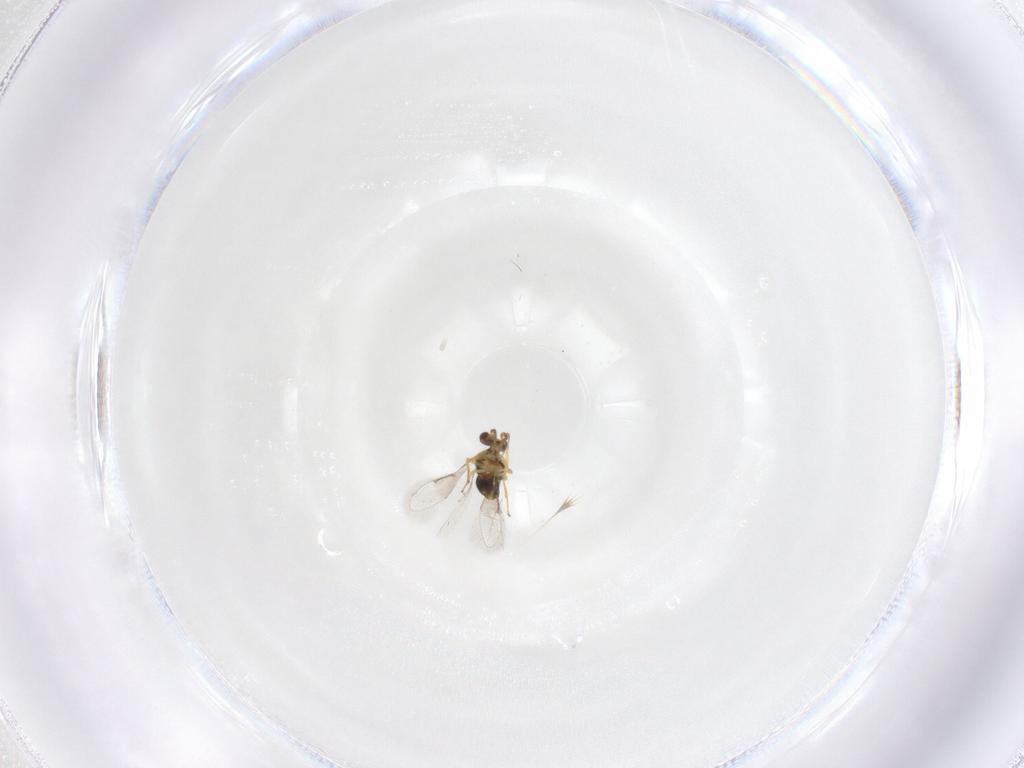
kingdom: Animalia
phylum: Arthropoda
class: Insecta
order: Hymenoptera
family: Aphelinidae
